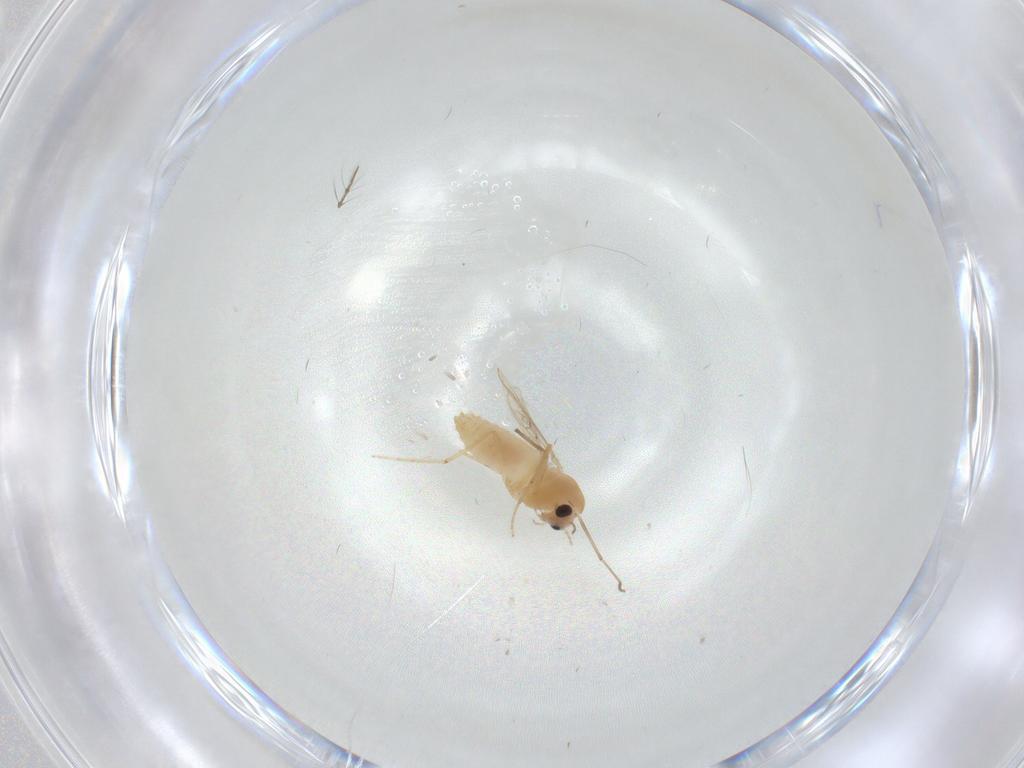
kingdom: Animalia
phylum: Arthropoda
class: Insecta
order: Diptera
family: Chironomidae
